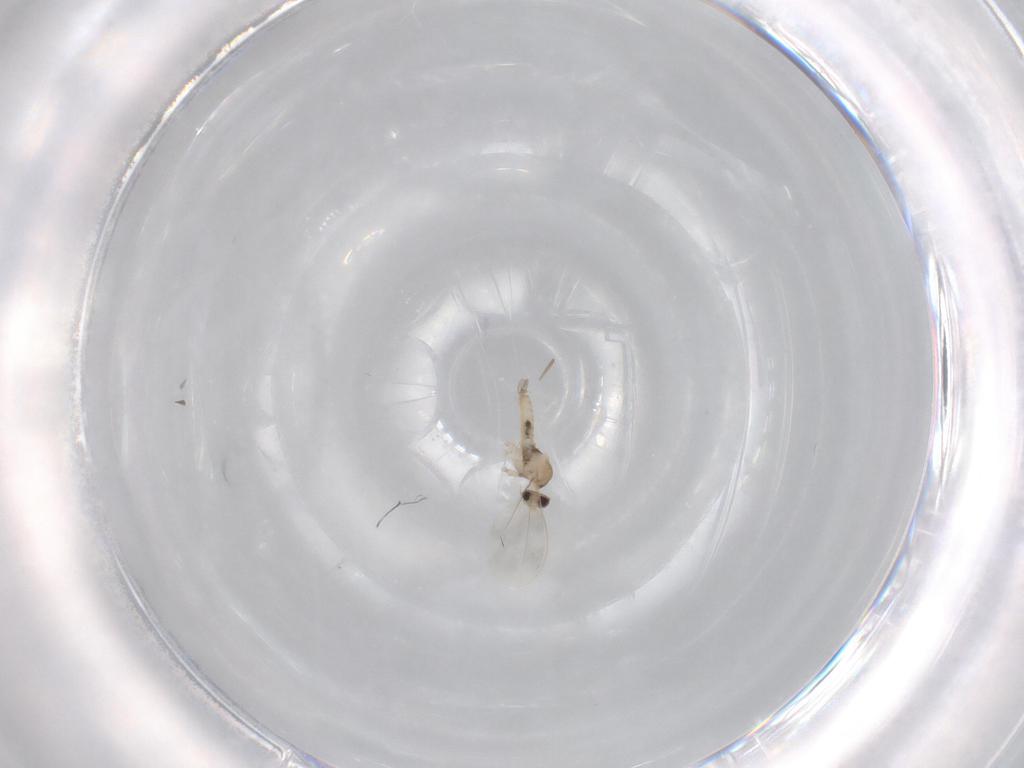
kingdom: Animalia
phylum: Arthropoda
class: Insecta
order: Diptera
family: Cecidomyiidae
